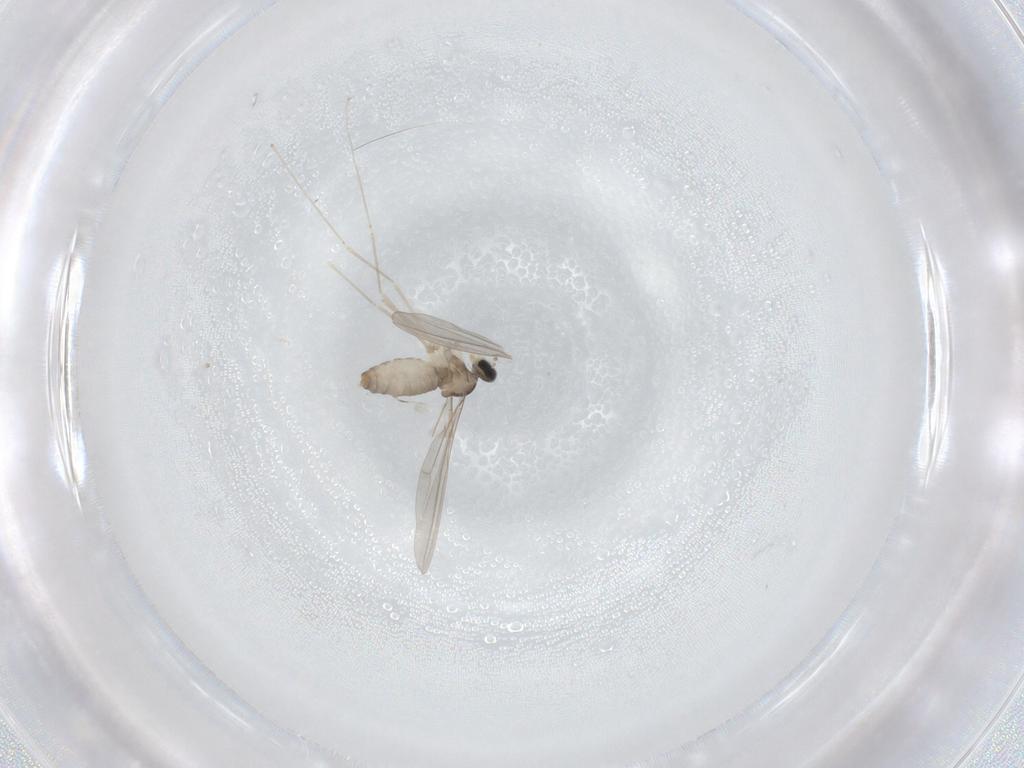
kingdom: Animalia
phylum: Arthropoda
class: Insecta
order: Diptera
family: Cecidomyiidae
